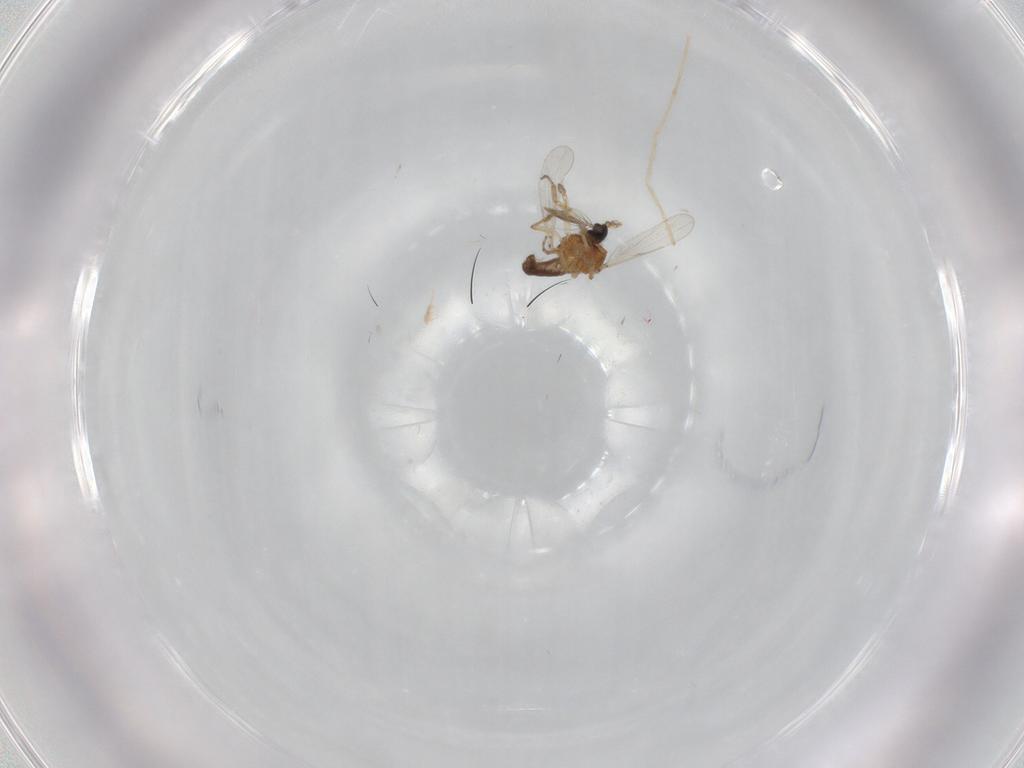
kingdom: Animalia
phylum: Arthropoda
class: Insecta
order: Diptera
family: Chironomidae
